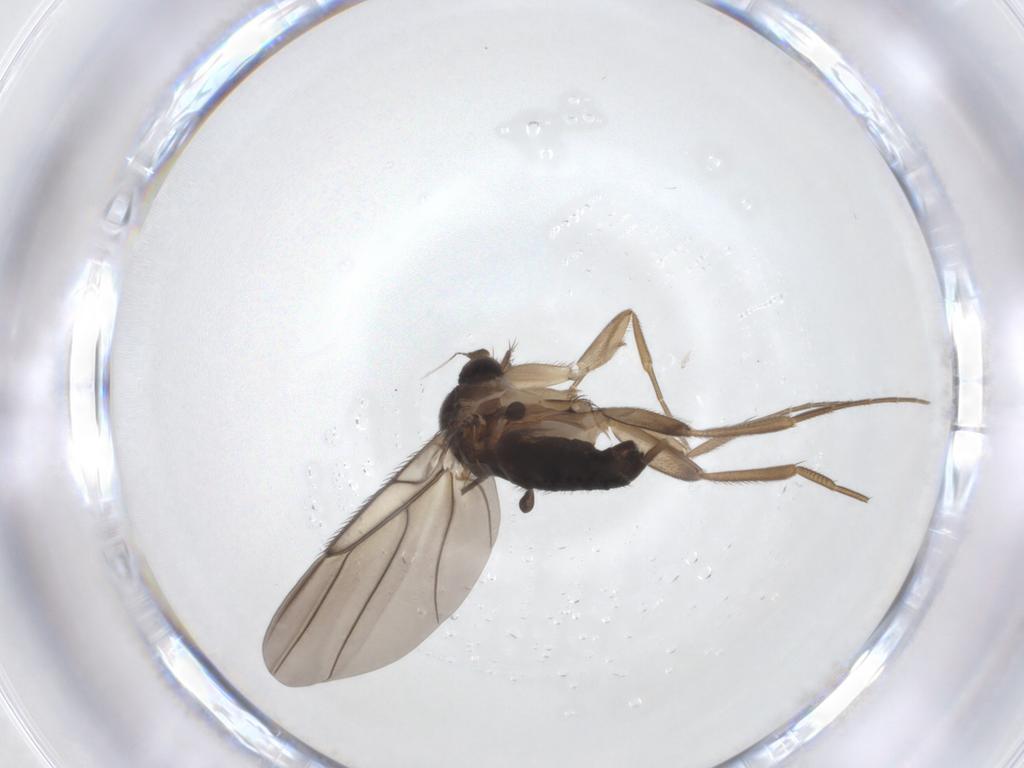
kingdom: Animalia
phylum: Arthropoda
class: Insecta
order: Diptera
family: Phoridae
